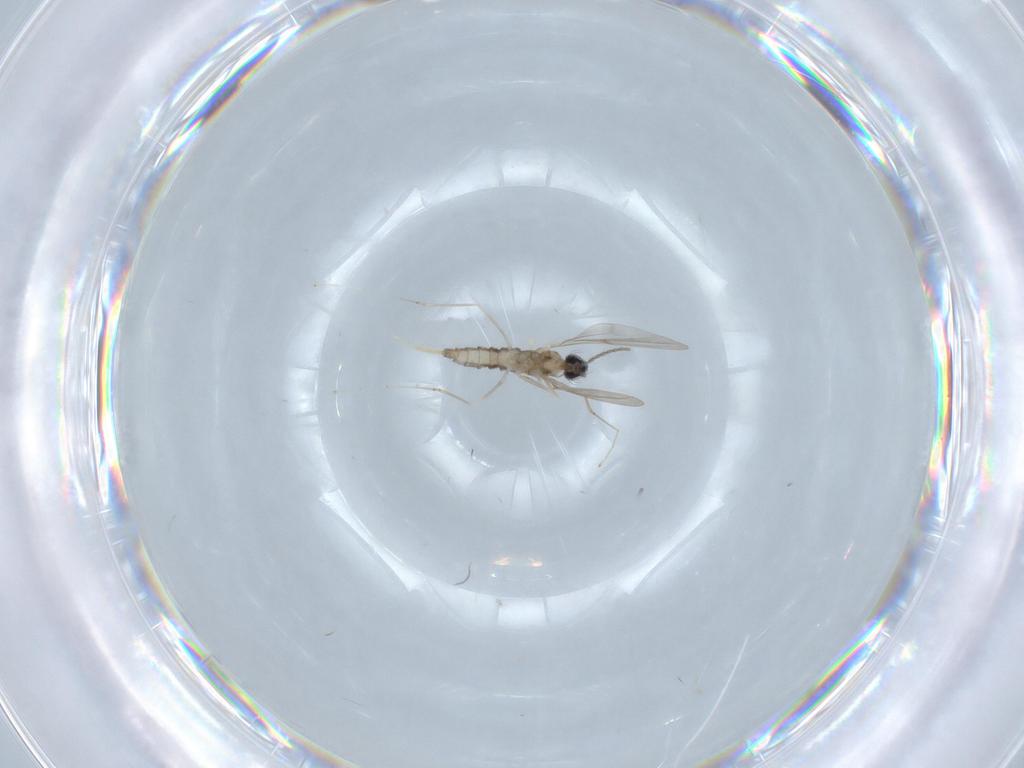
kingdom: Animalia
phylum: Arthropoda
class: Insecta
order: Diptera
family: Cecidomyiidae
